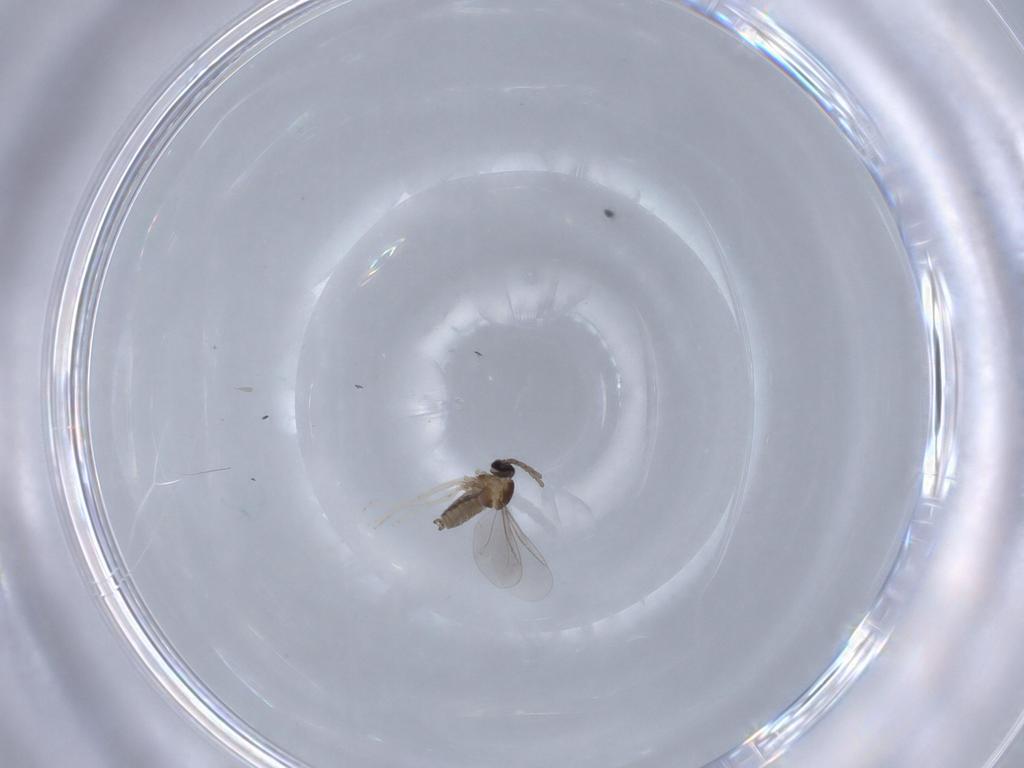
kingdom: Animalia
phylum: Arthropoda
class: Insecta
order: Diptera
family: Cecidomyiidae
